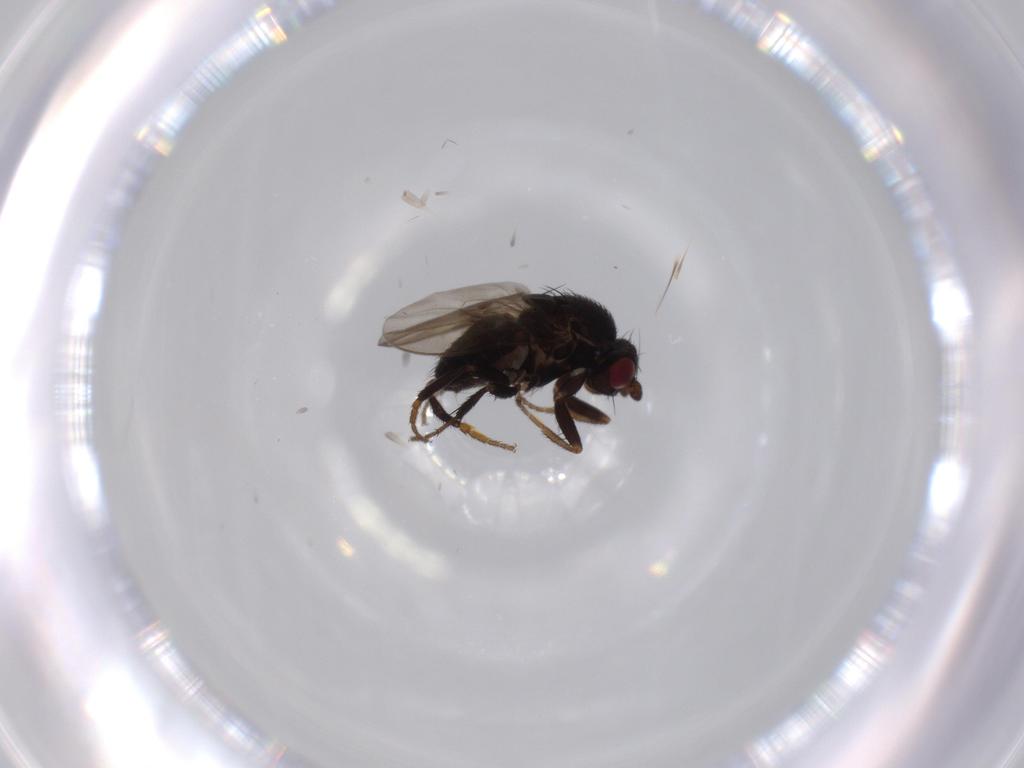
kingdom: Animalia
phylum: Arthropoda
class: Insecta
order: Diptera
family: Sphaeroceridae
